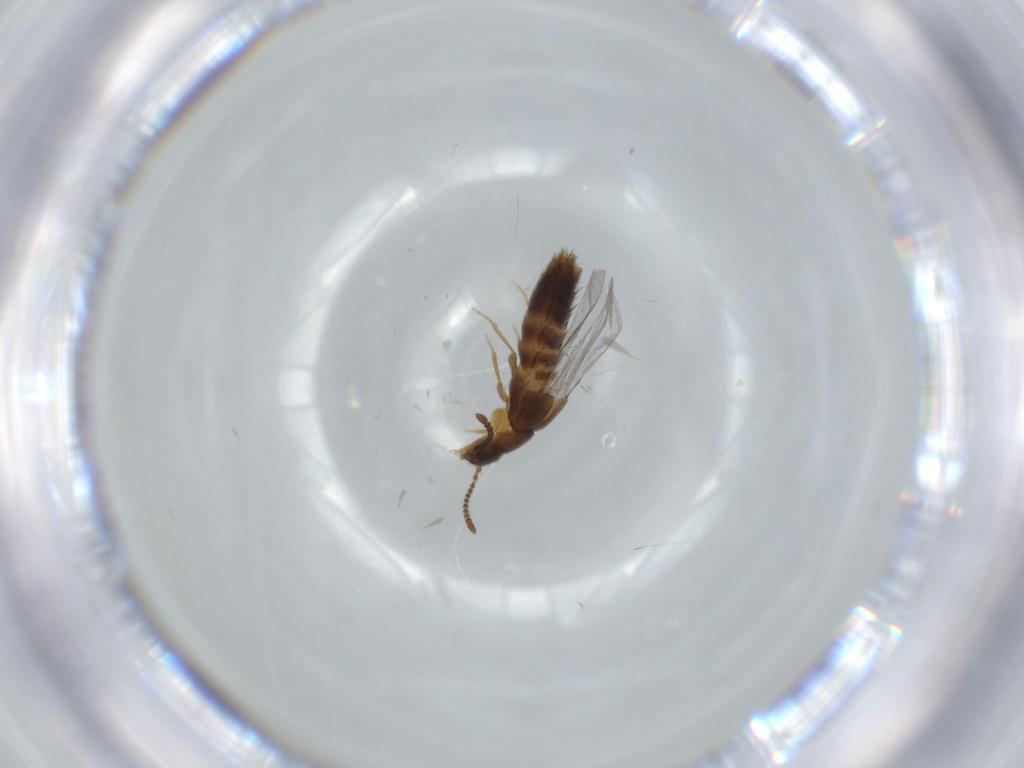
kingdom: Animalia
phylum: Arthropoda
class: Insecta
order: Coleoptera
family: Staphylinidae
